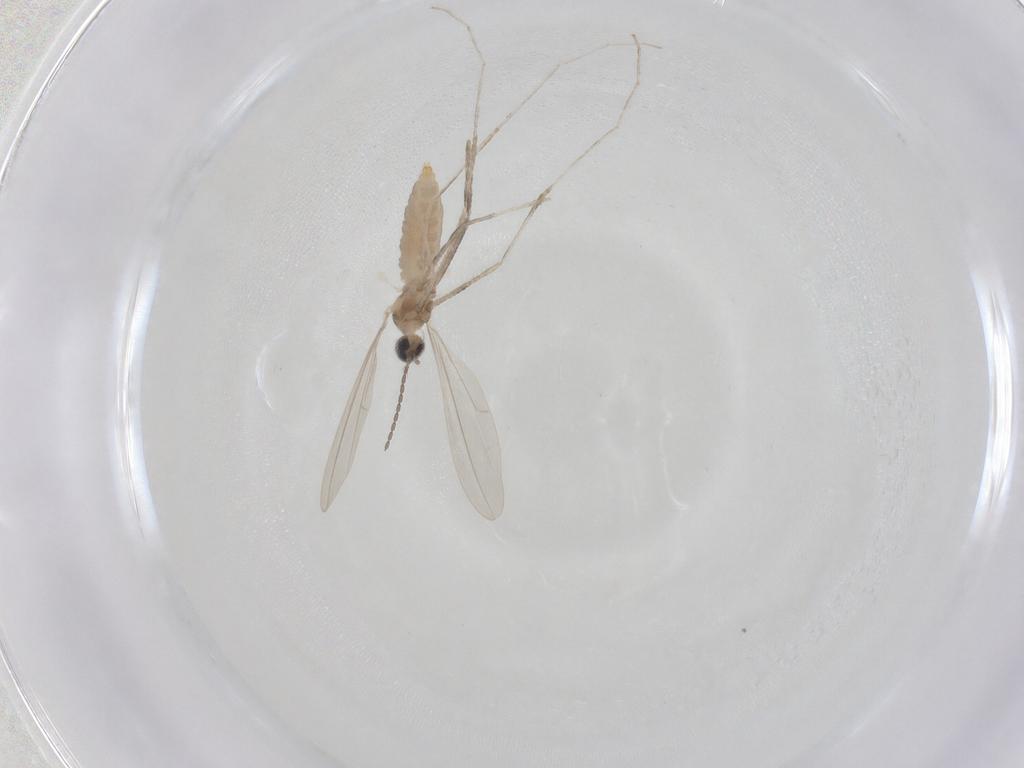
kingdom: Animalia
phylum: Arthropoda
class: Insecta
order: Diptera
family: Cecidomyiidae
